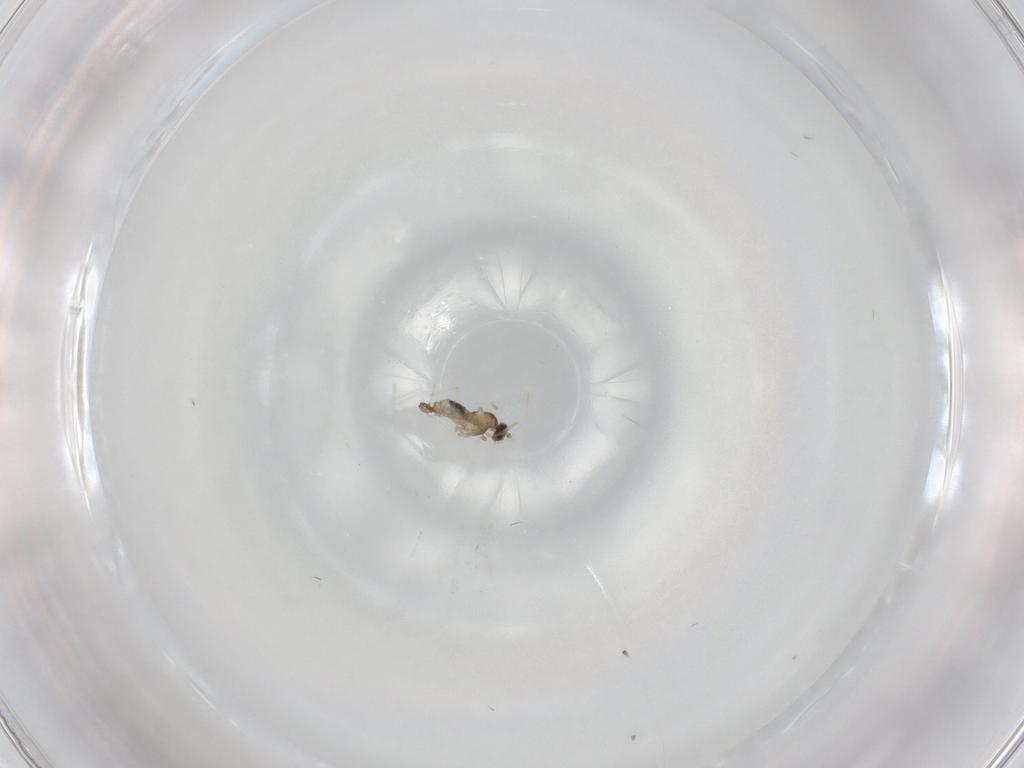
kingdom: Animalia
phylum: Arthropoda
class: Insecta
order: Diptera
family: Cecidomyiidae
